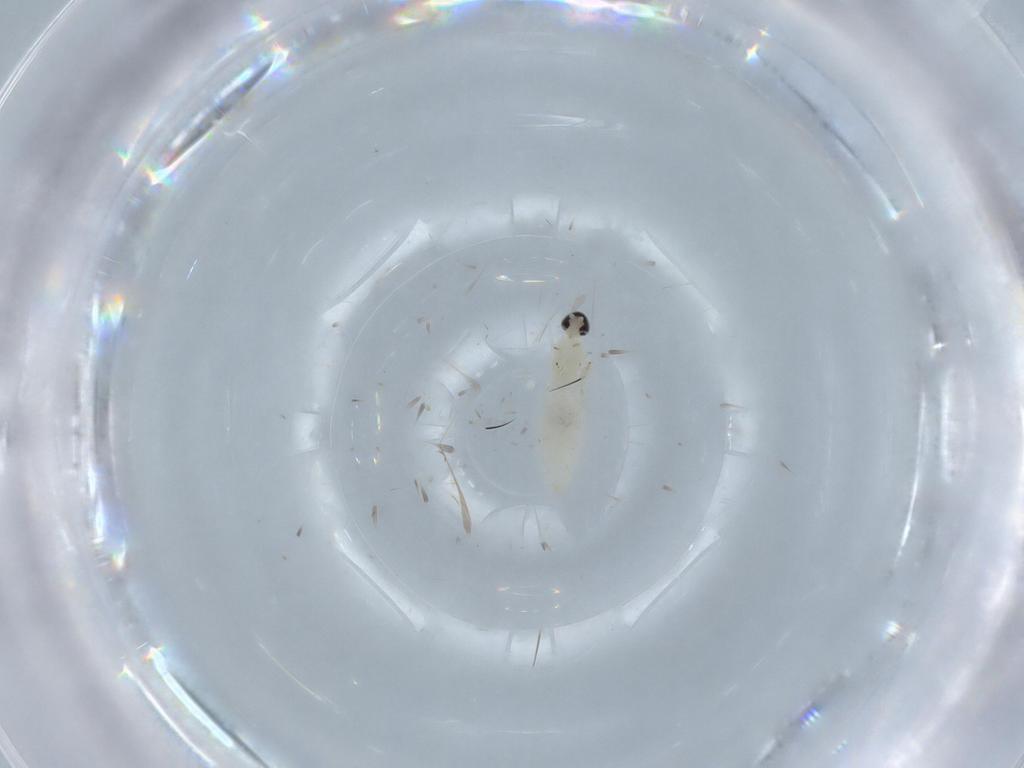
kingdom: Animalia
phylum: Arthropoda
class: Insecta
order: Diptera
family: Cecidomyiidae
